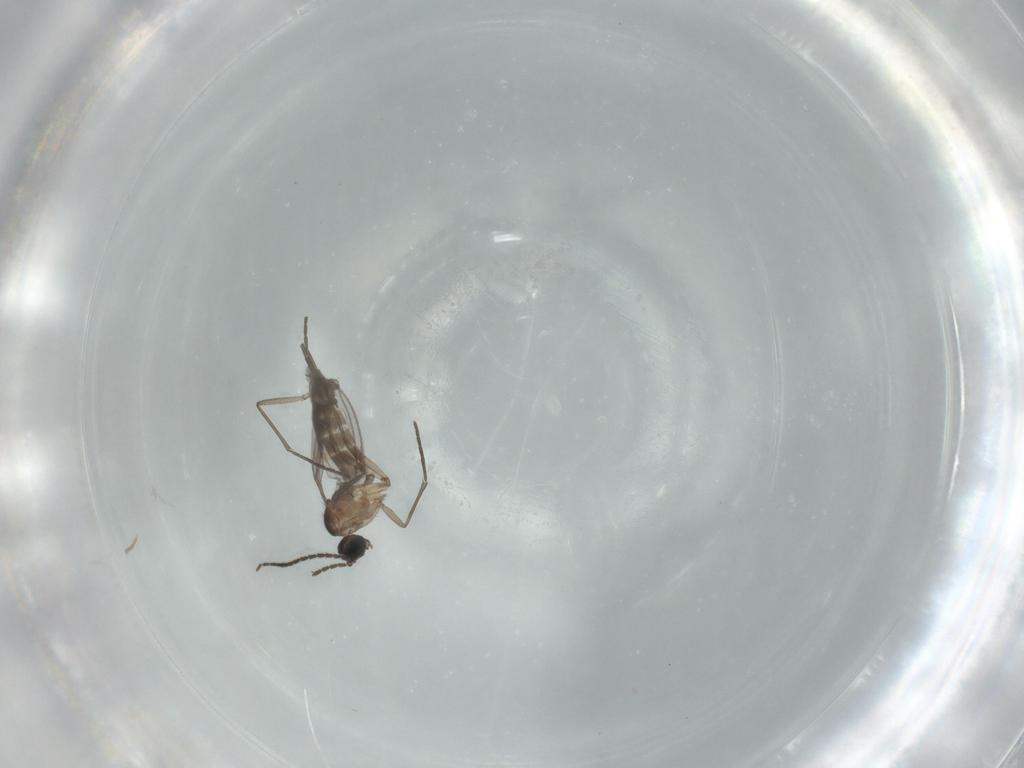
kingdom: Animalia
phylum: Arthropoda
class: Insecta
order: Diptera
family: Sciaridae
